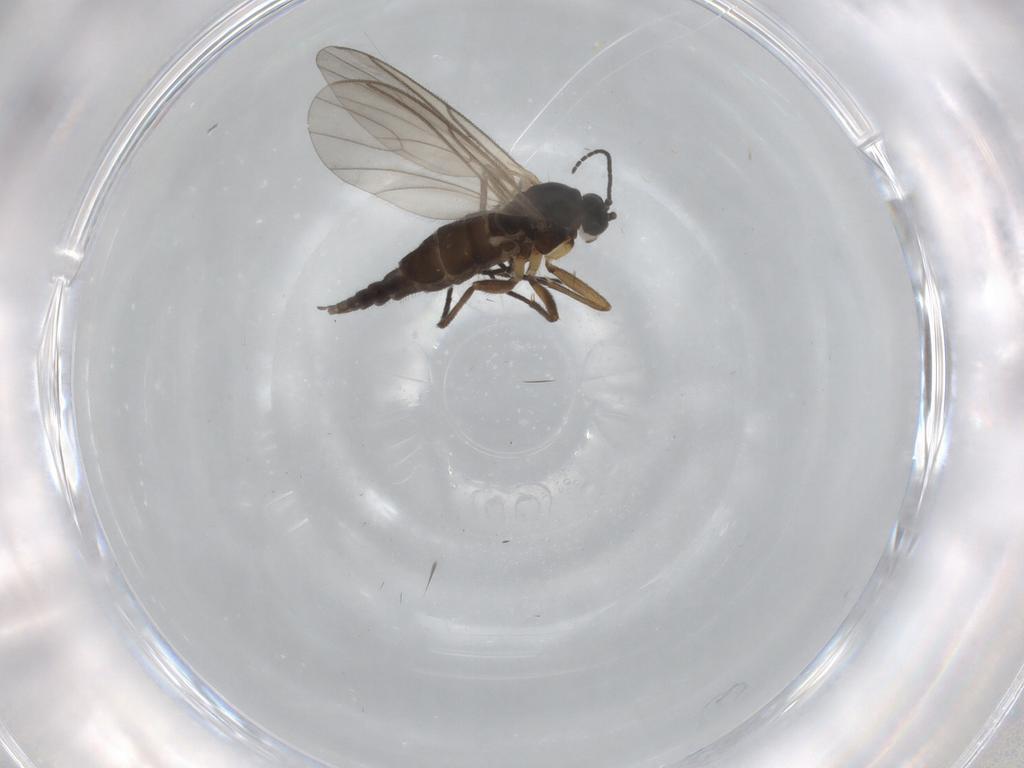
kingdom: Animalia
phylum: Arthropoda
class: Insecta
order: Diptera
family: Sciaridae
